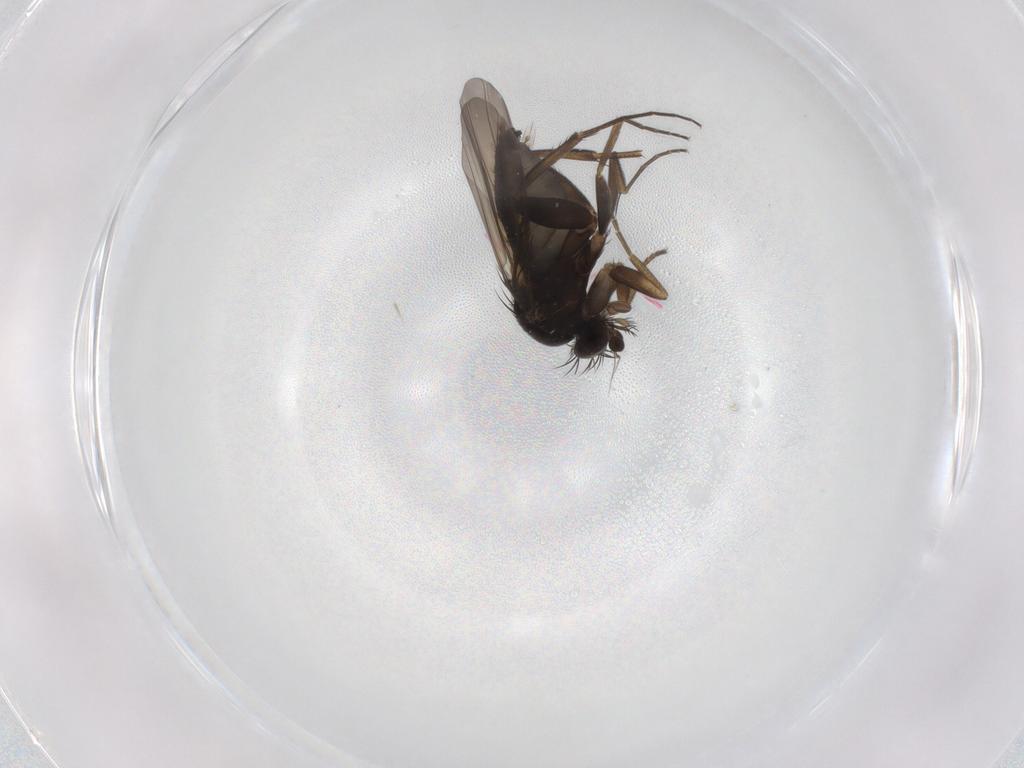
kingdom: Animalia
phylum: Arthropoda
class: Insecta
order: Diptera
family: Phoridae
